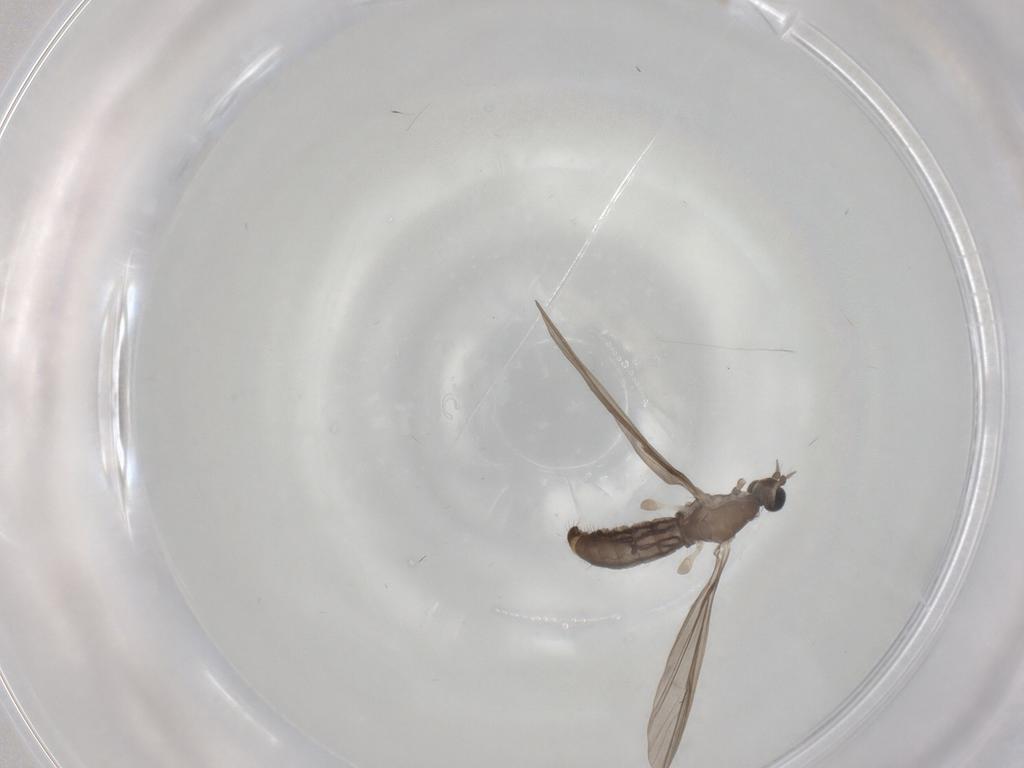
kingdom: Animalia
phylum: Arthropoda
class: Insecta
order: Diptera
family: Limoniidae
